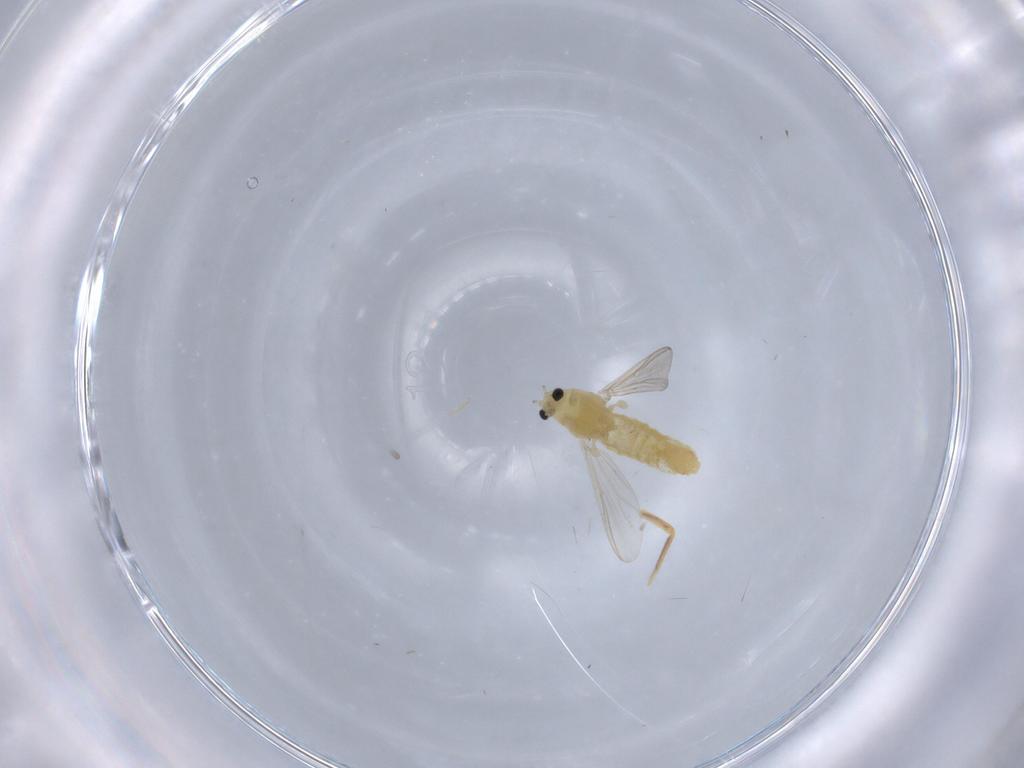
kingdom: Animalia
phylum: Arthropoda
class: Insecta
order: Diptera
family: Chironomidae
